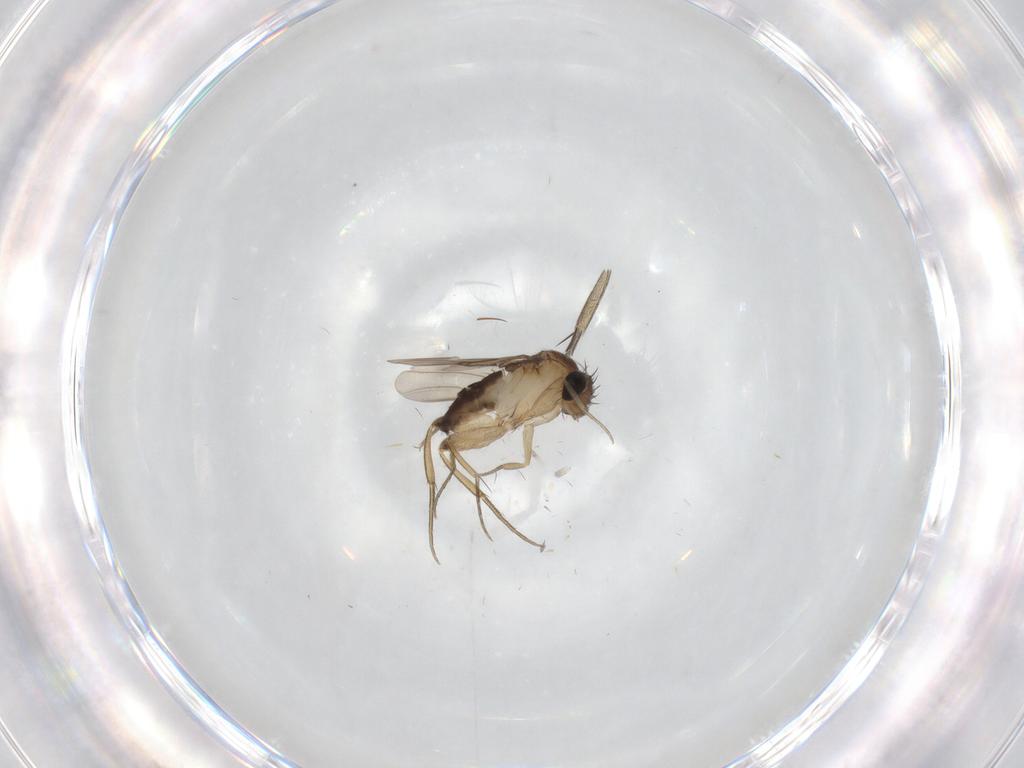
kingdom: Animalia
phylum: Arthropoda
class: Insecta
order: Diptera
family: Phoridae
